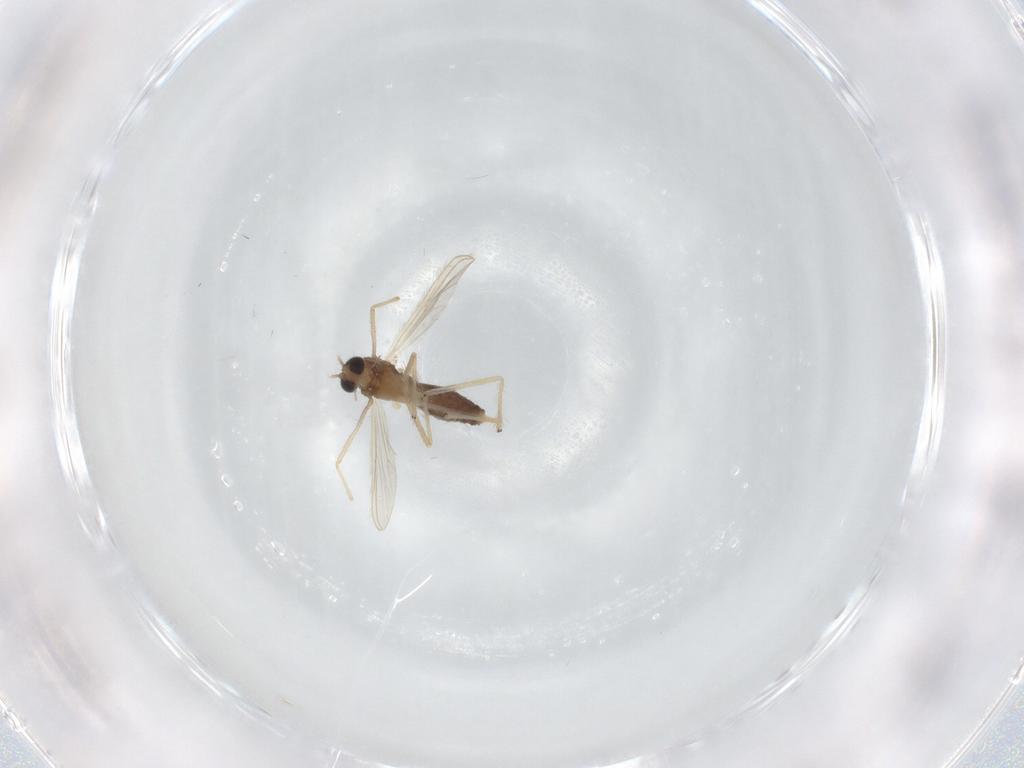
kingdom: Animalia
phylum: Arthropoda
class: Insecta
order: Diptera
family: Chironomidae
